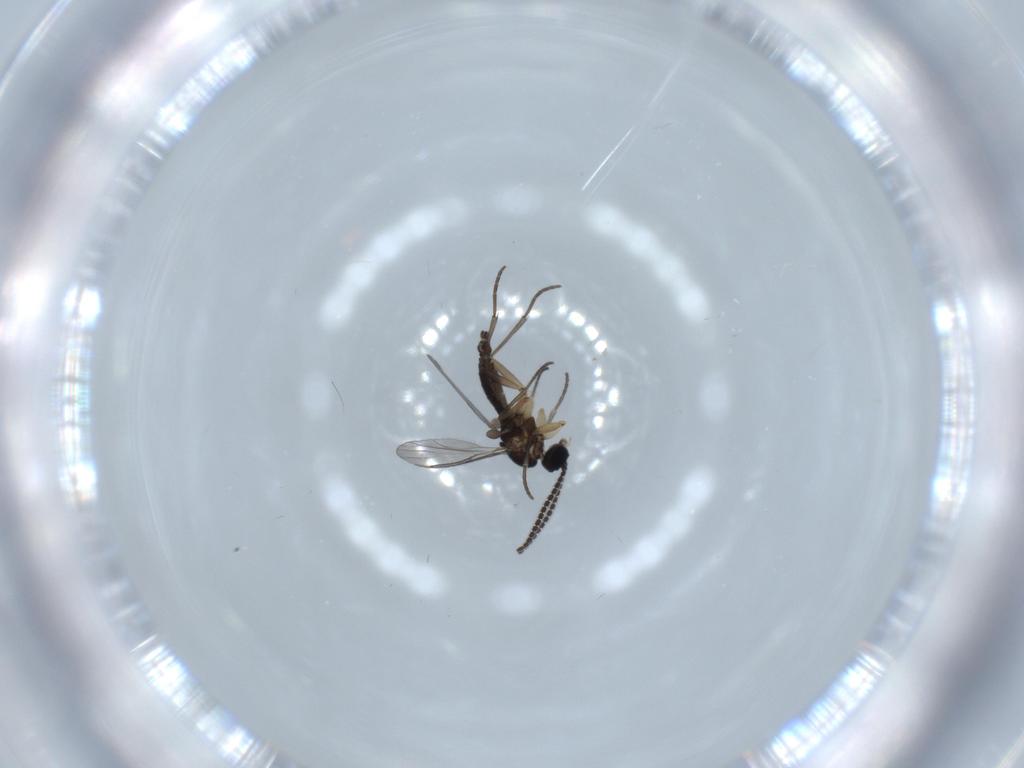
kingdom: Animalia
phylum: Arthropoda
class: Insecta
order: Diptera
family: Sciaridae
